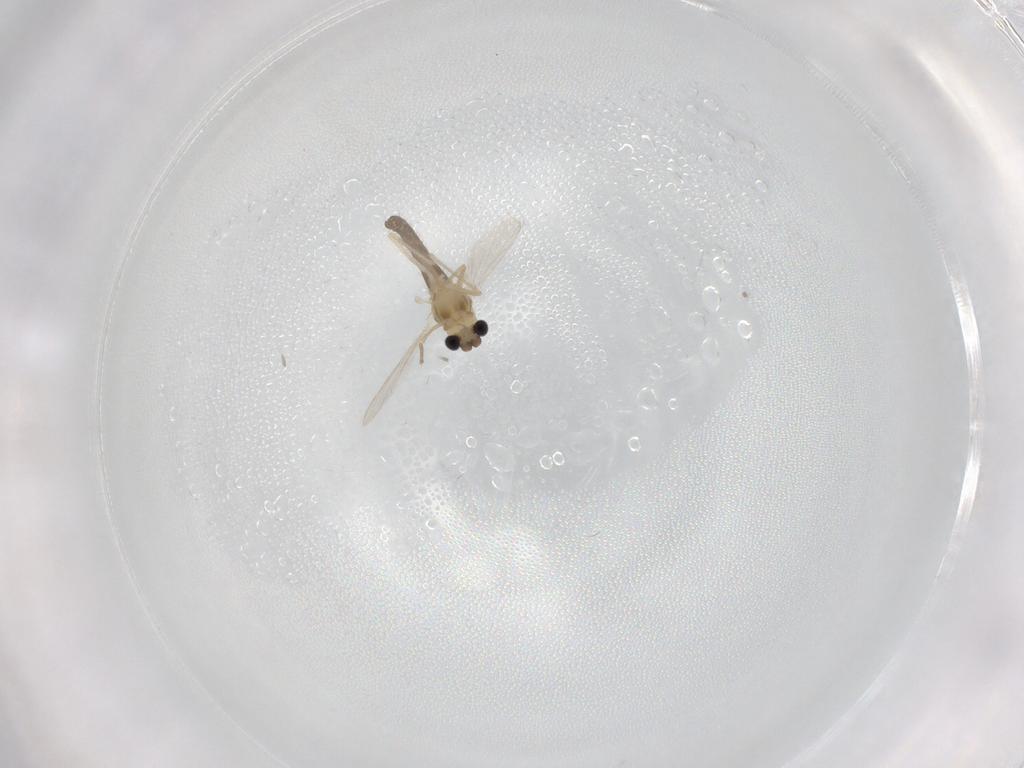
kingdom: Animalia
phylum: Arthropoda
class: Insecta
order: Diptera
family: Chironomidae
